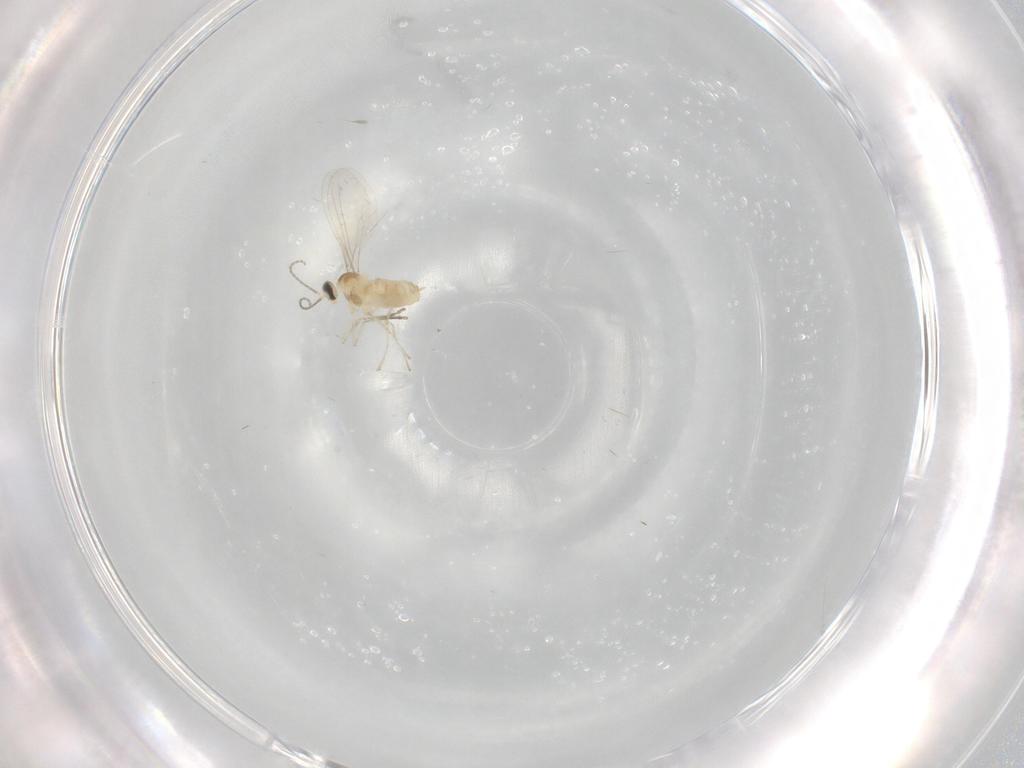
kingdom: Animalia
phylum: Arthropoda
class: Insecta
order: Diptera
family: Cecidomyiidae
